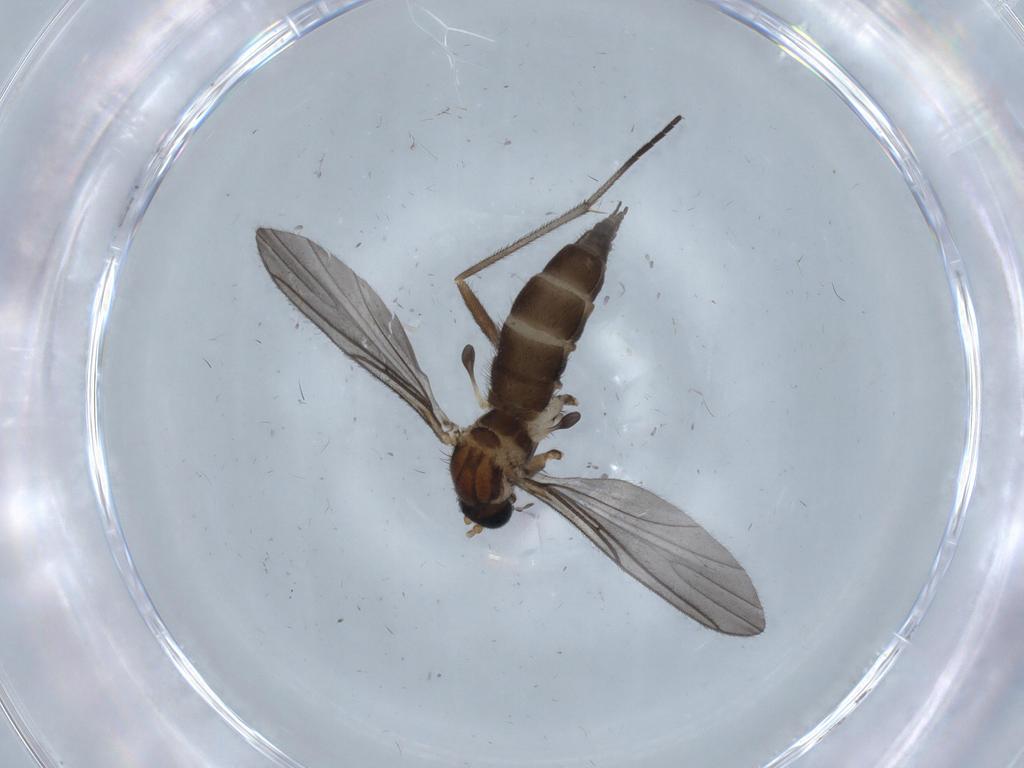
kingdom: Animalia
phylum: Arthropoda
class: Insecta
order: Diptera
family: Sciaridae
